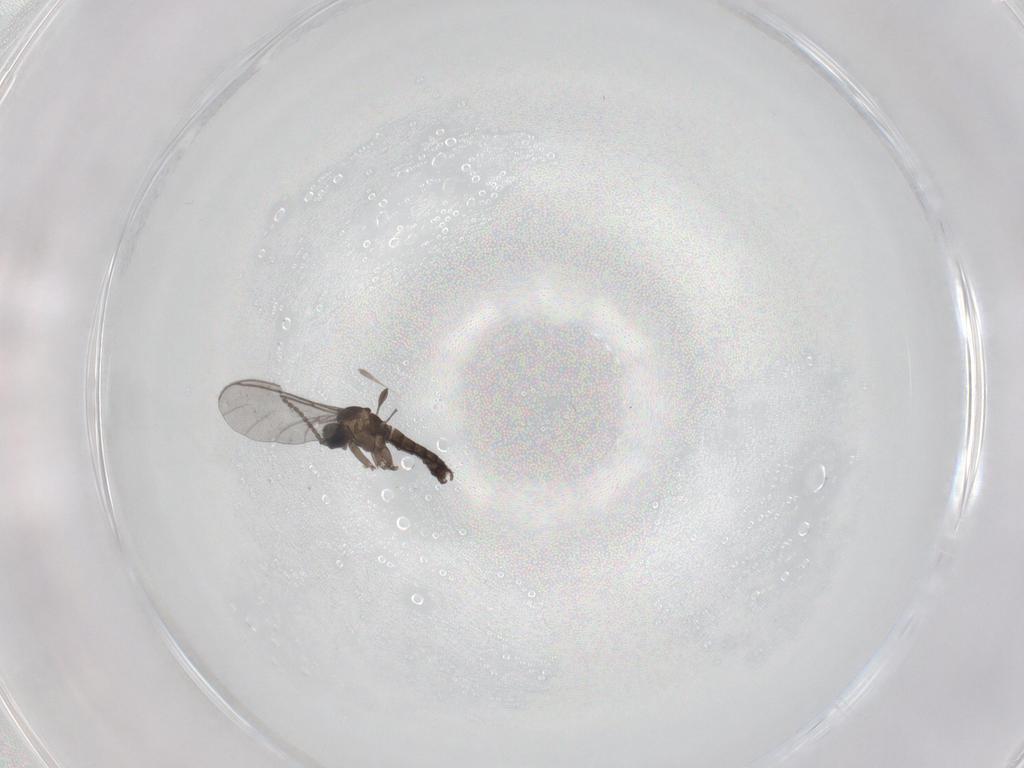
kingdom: Animalia
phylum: Arthropoda
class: Insecta
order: Diptera
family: Sciaridae
